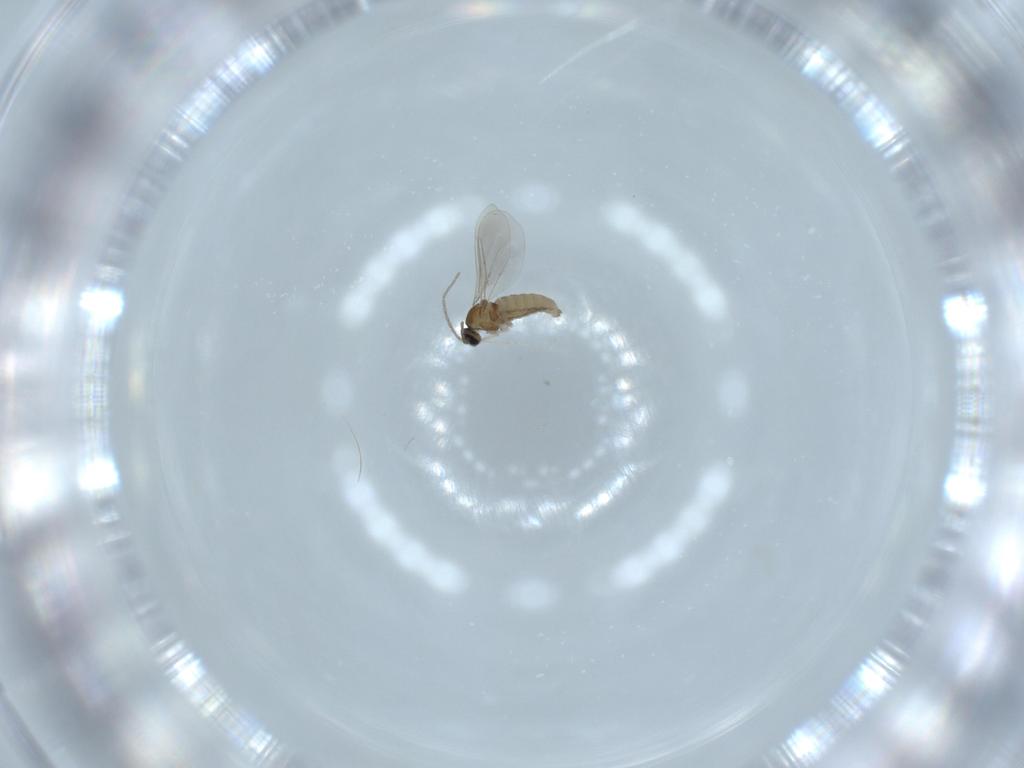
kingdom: Animalia
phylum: Arthropoda
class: Insecta
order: Diptera
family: Cecidomyiidae
